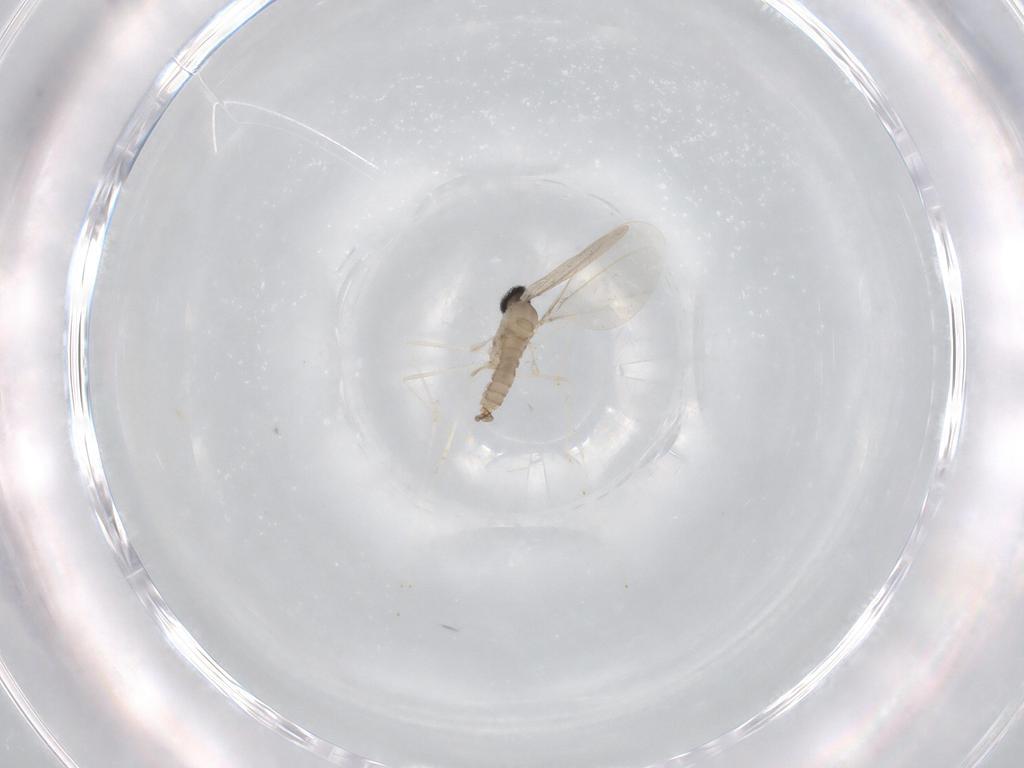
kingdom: Animalia
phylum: Arthropoda
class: Insecta
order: Diptera
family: Cecidomyiidae
